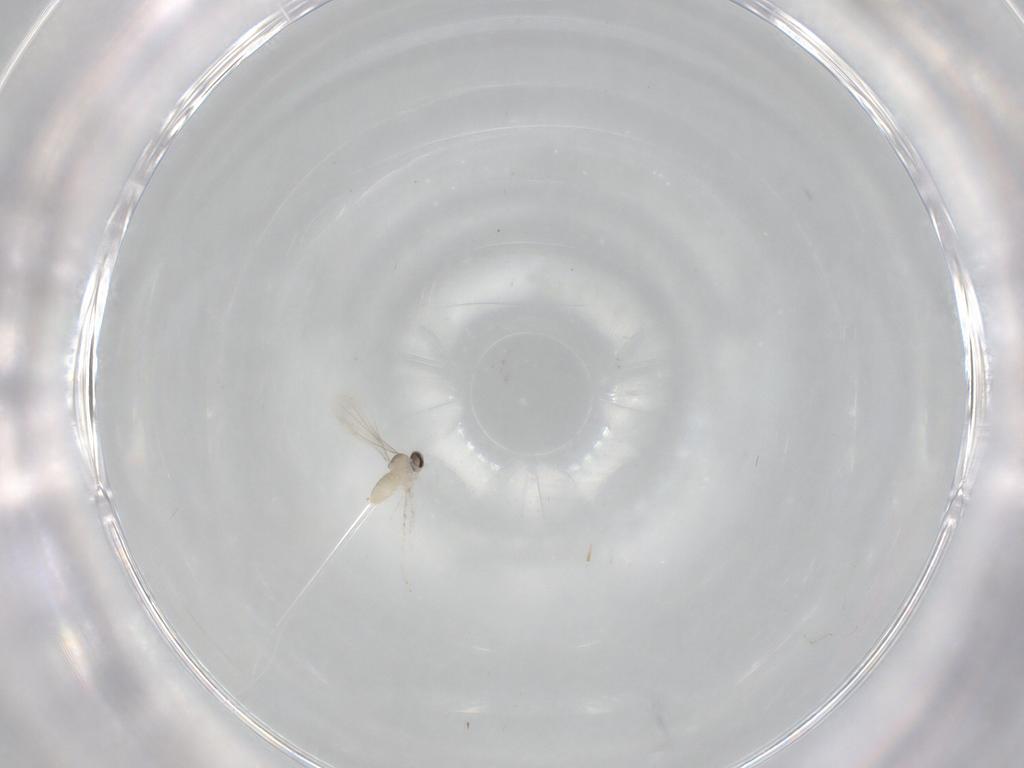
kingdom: Animalia
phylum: Arthropoda
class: Insecta
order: Diptera
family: Cecidomyiidae
